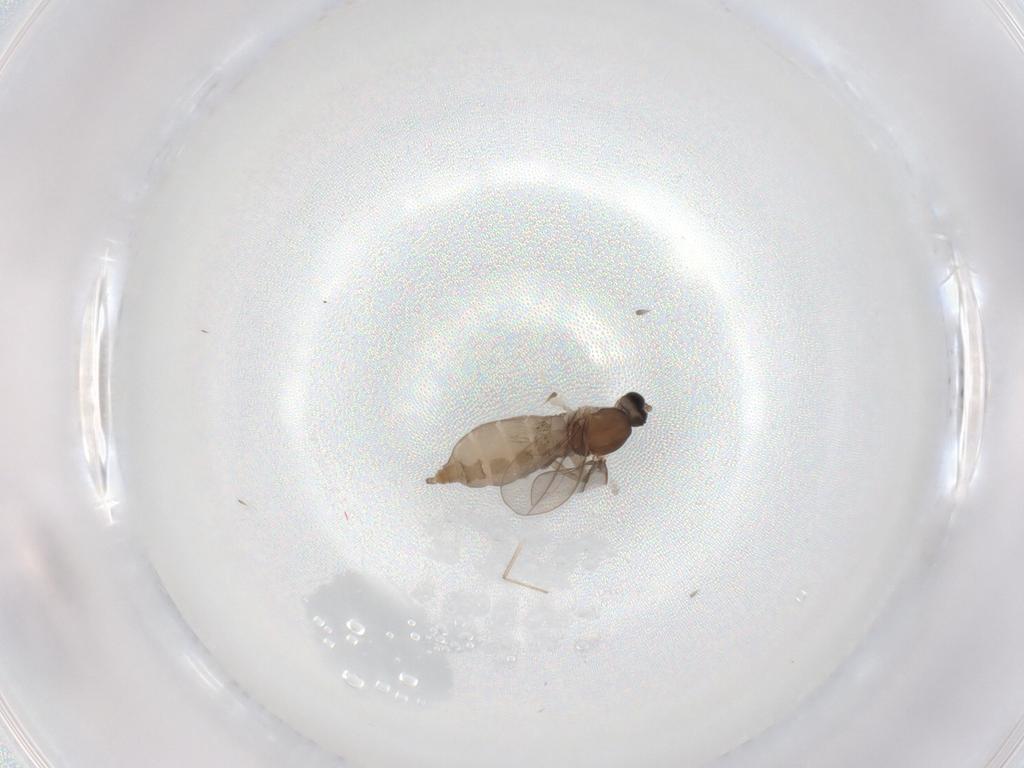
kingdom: Animalia
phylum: Arthropoda
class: Insecta
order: Diptera
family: Cecidomyiidae
